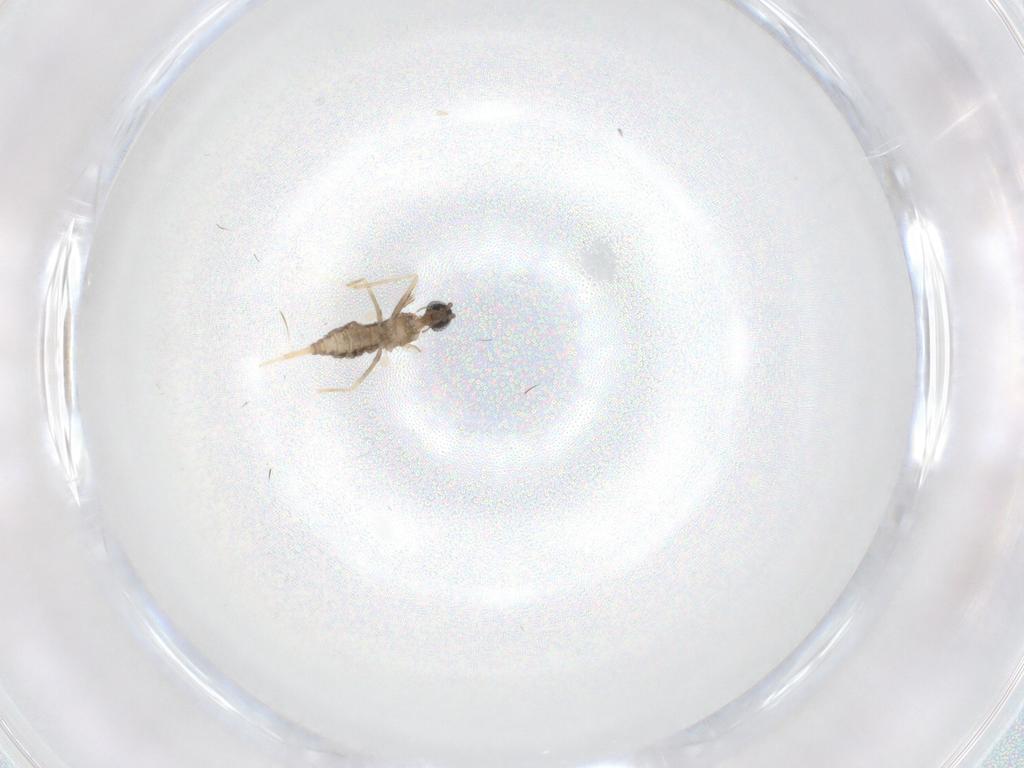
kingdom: Animalia
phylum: Arthropoda
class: Insecta
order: Diptera
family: Cecidomyiidae
